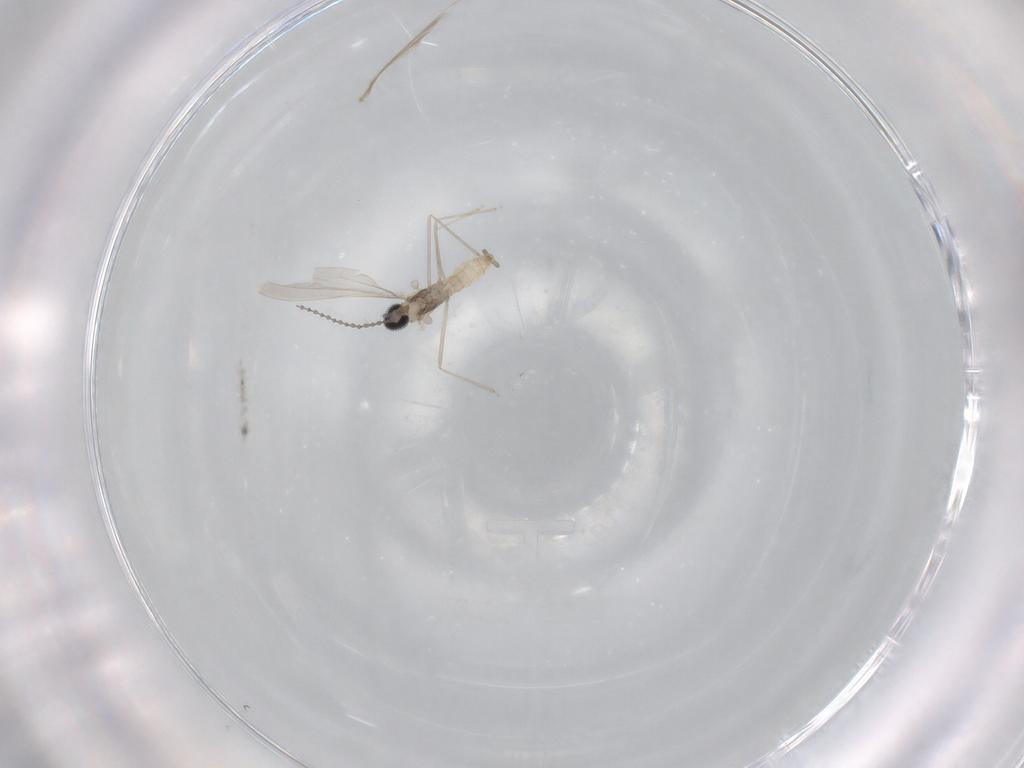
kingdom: Animalia
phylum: Arthropoda
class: Insecta
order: Diptera
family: Cecidomyiidae
